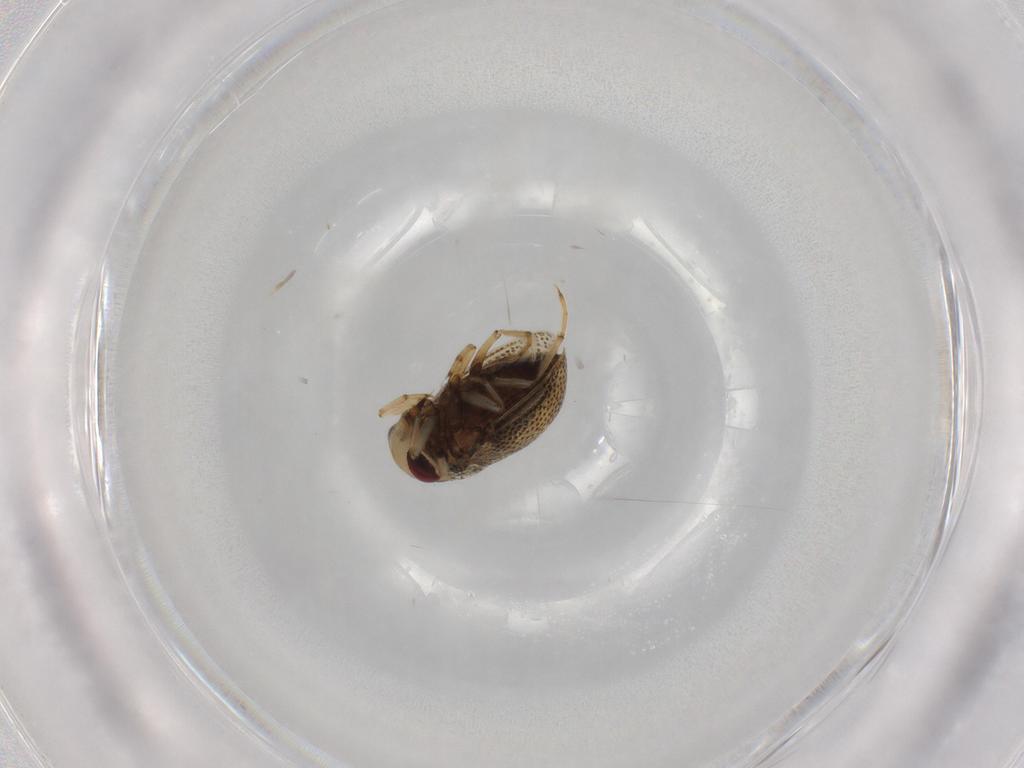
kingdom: Animalia
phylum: Arthropoda
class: Insecta
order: Hemiptera
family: Pleidae
